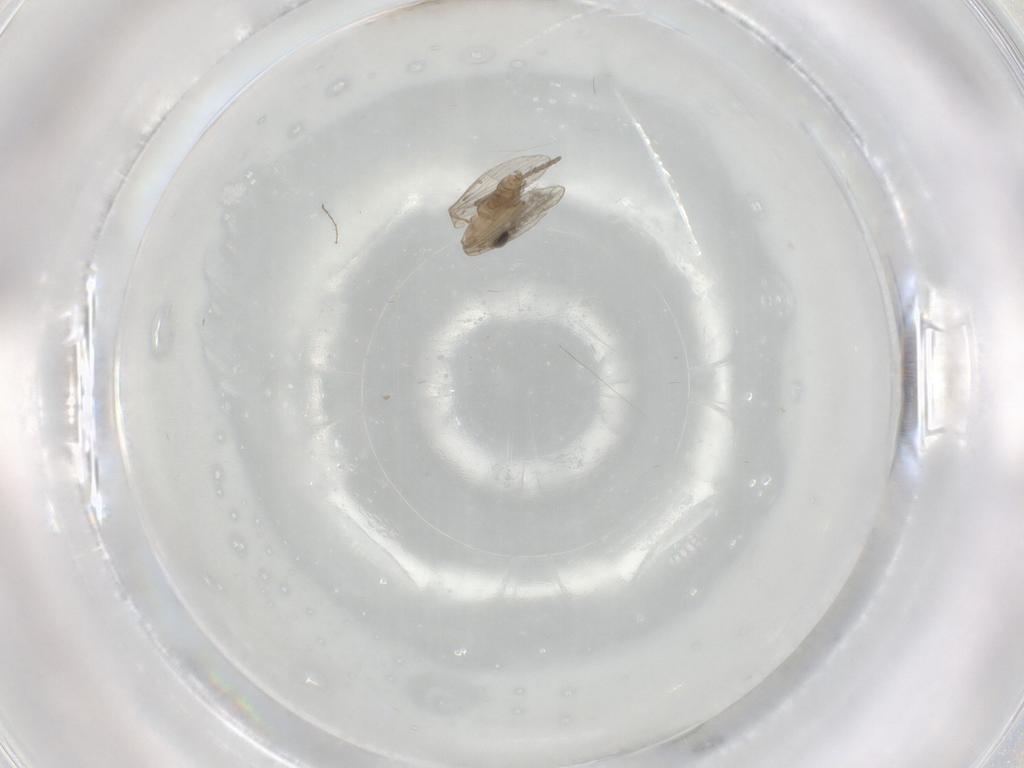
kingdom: Animalia
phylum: Arthropoda
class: Insecta
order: Diptera
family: Psychodidae
